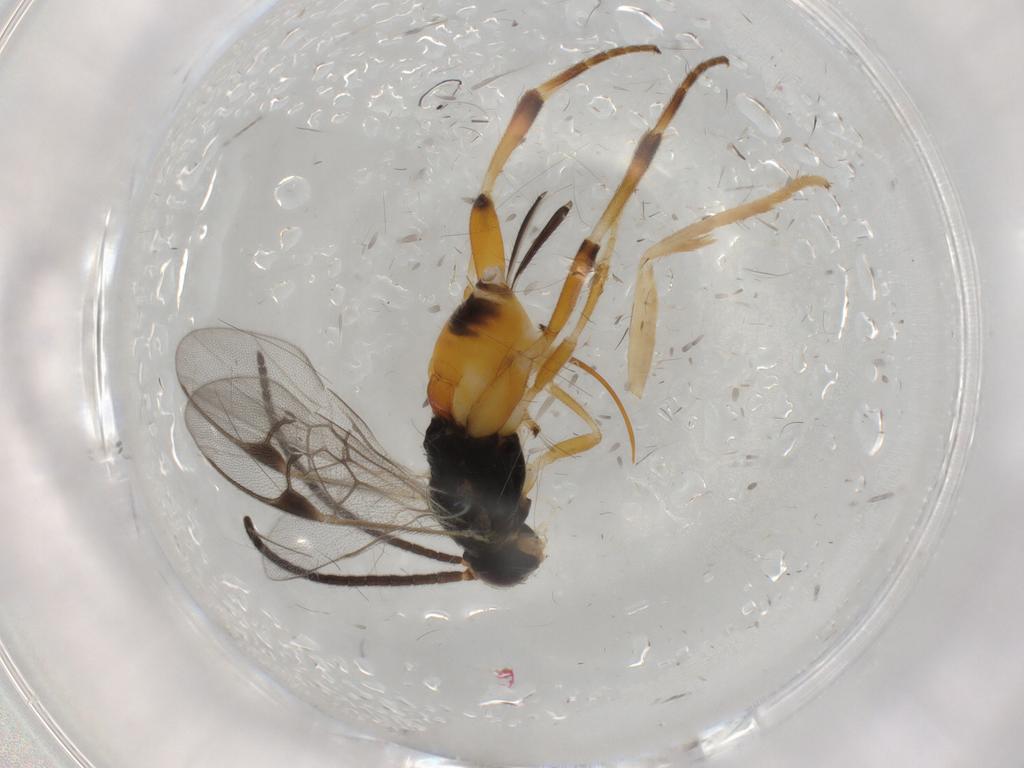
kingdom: Animalia
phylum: Arthropoda
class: Insecta
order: Hymenoptera
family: Braconidae
